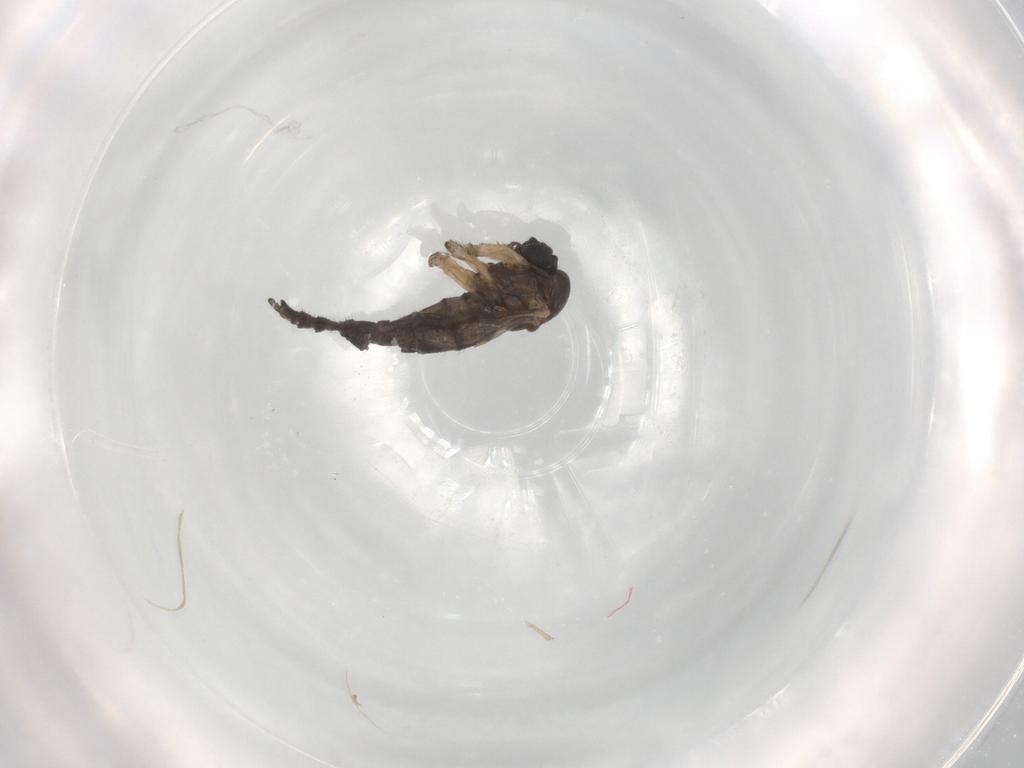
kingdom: Animalia
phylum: Arthropoda
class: Insecta
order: Diptera
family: Sciaridae
